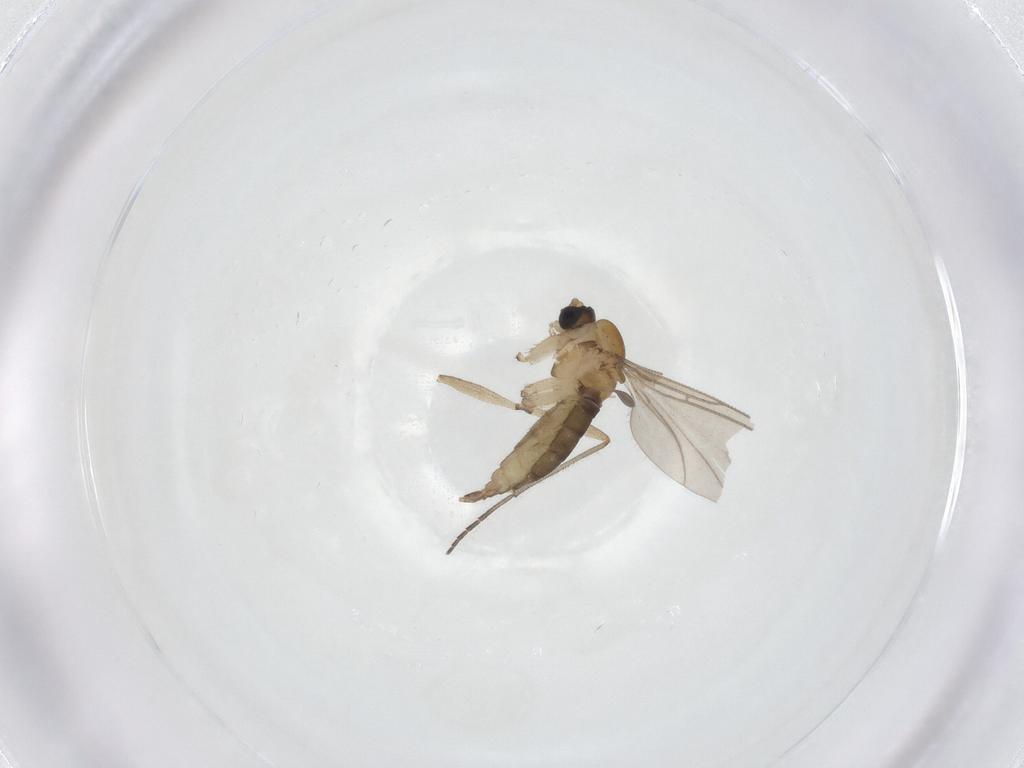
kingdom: Animalia
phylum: Arthropoda
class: Insecta
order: Diptera
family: Sciaridae
